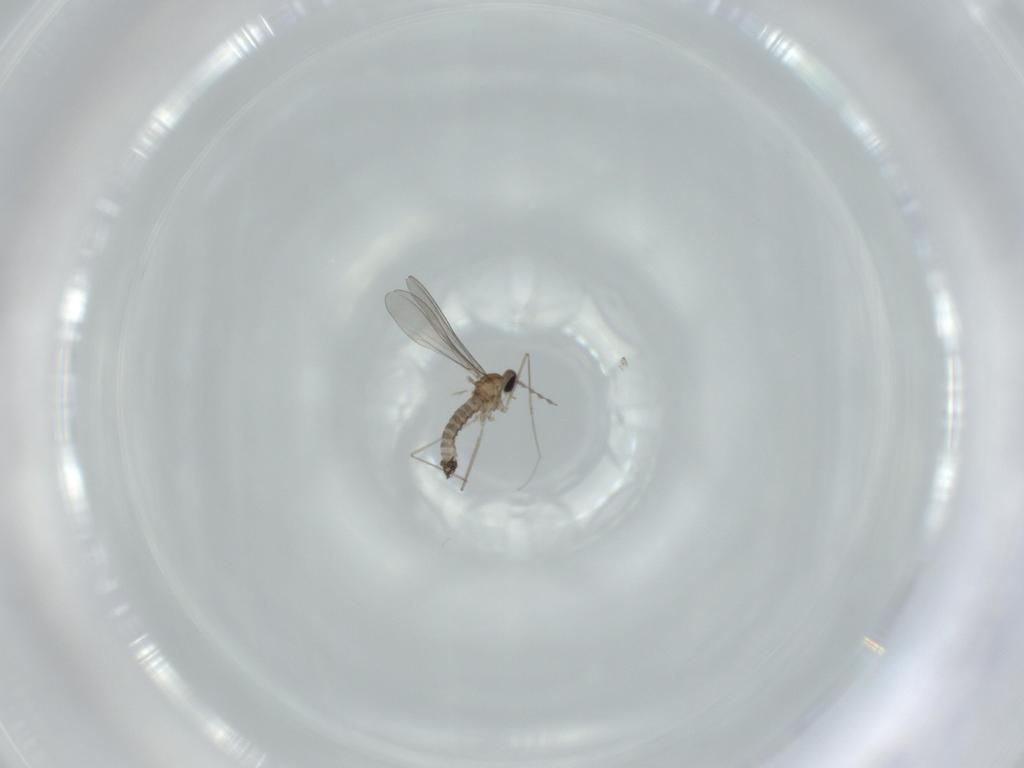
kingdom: Animalia
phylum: Arthropoda
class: Insecta
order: Diptera
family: Cecidomyiidae
